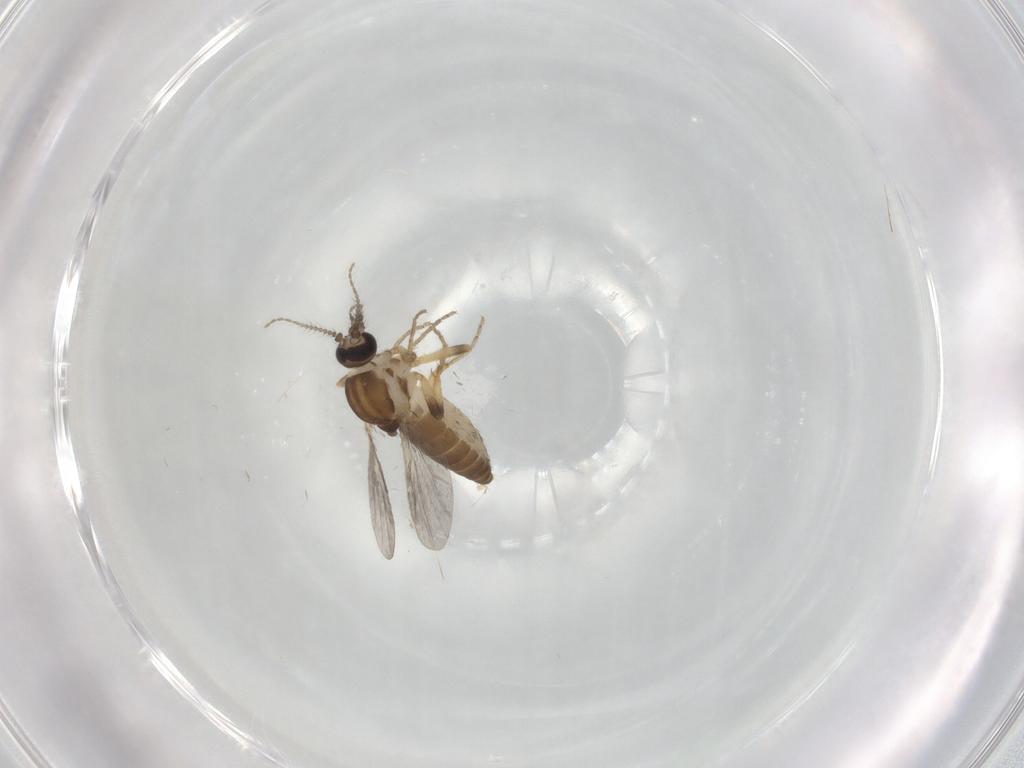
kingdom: Animalia
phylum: Arthropoda
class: Insecta
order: Diptera
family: Ceratopogonidae
